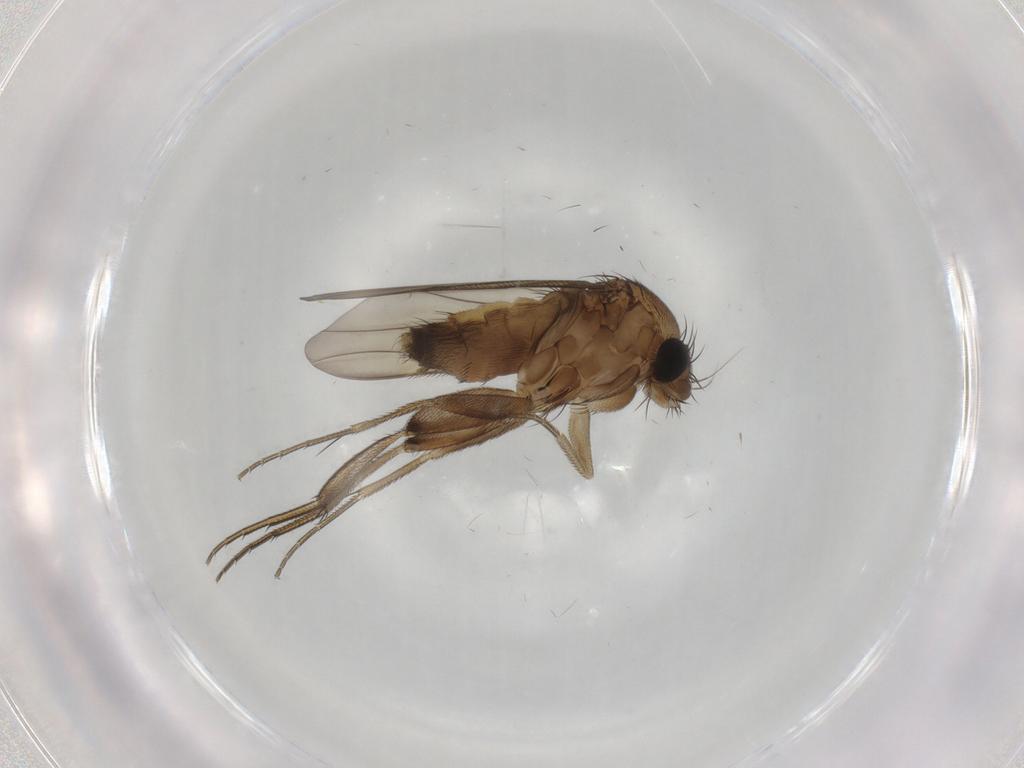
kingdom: Animalia
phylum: Arthropoda
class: Insecta
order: Diptera
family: Phoridae
